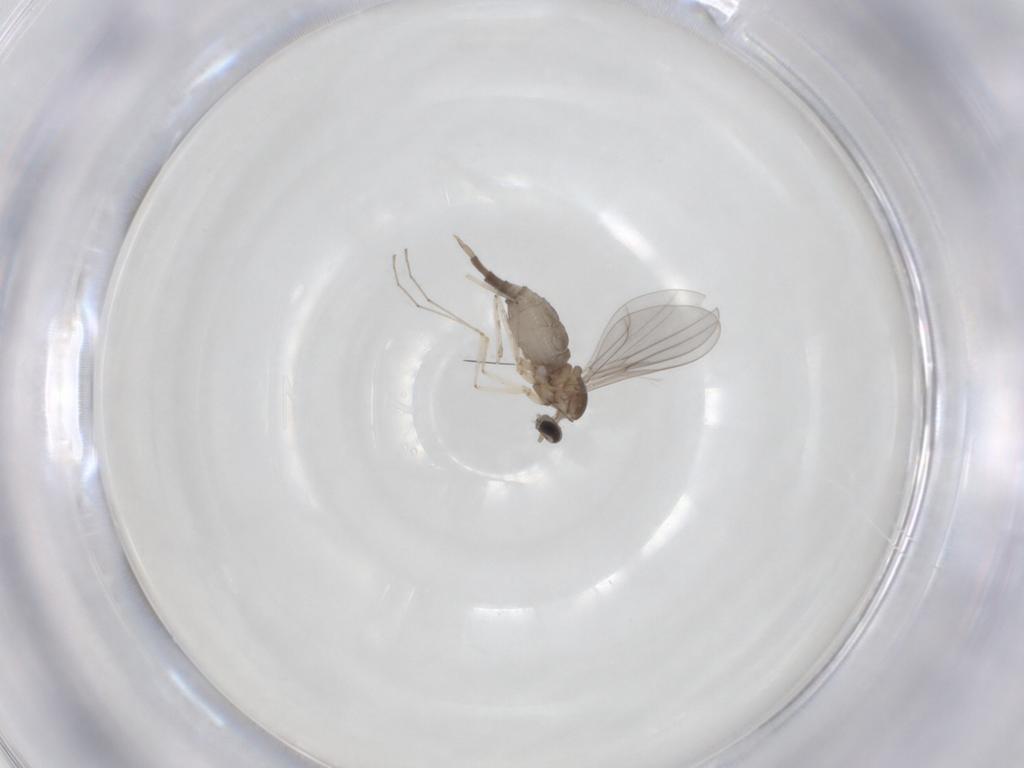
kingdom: Animalia
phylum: Arthropoda
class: Insecta
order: Diptera
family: Cecidomyiidae
